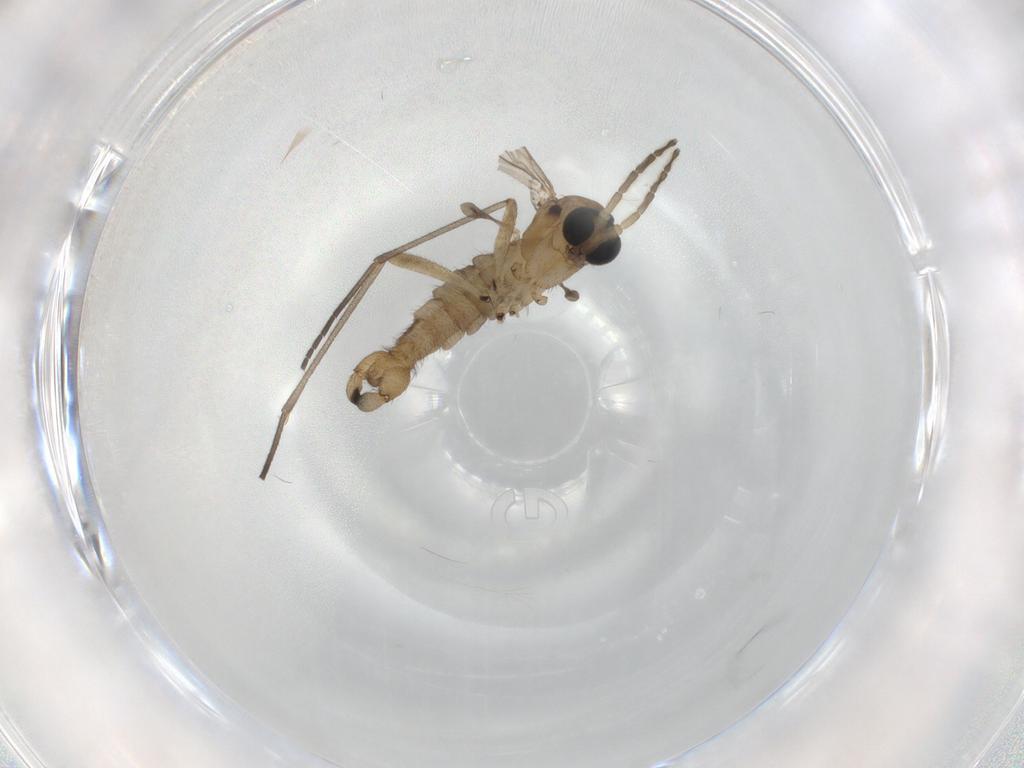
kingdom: Animalia
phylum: Arthropoda
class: Insecta
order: Diptera
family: Sciaridae
